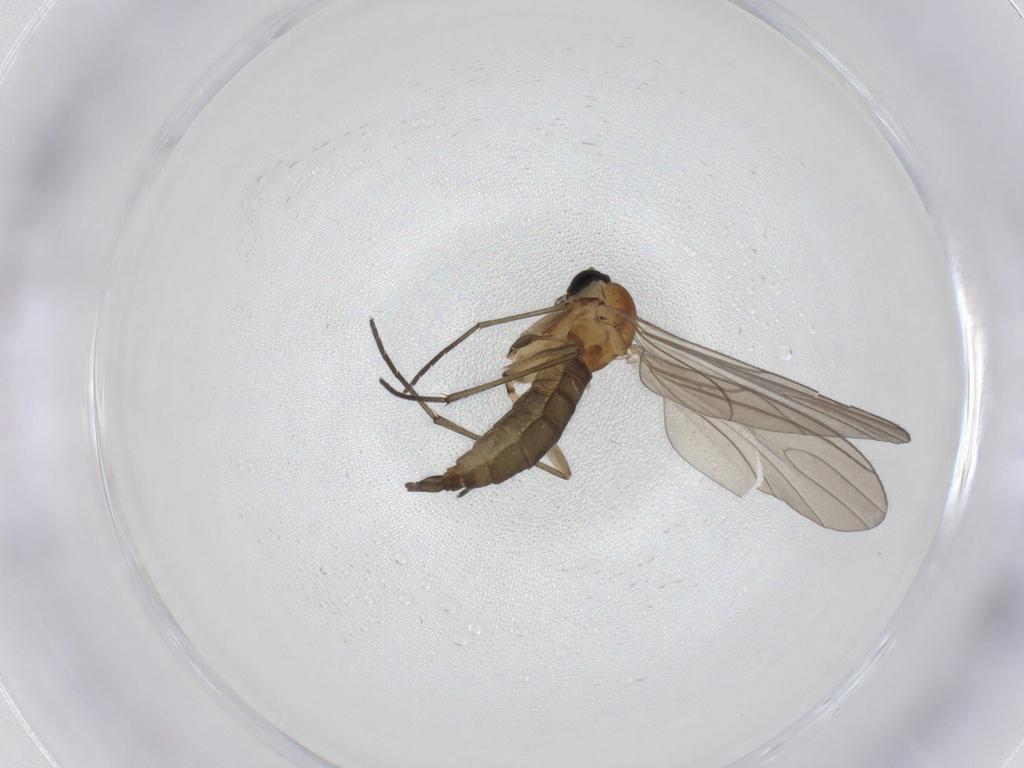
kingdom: Animalia
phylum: Arthropoda
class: Insecta
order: Diptera
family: Sciaridae
